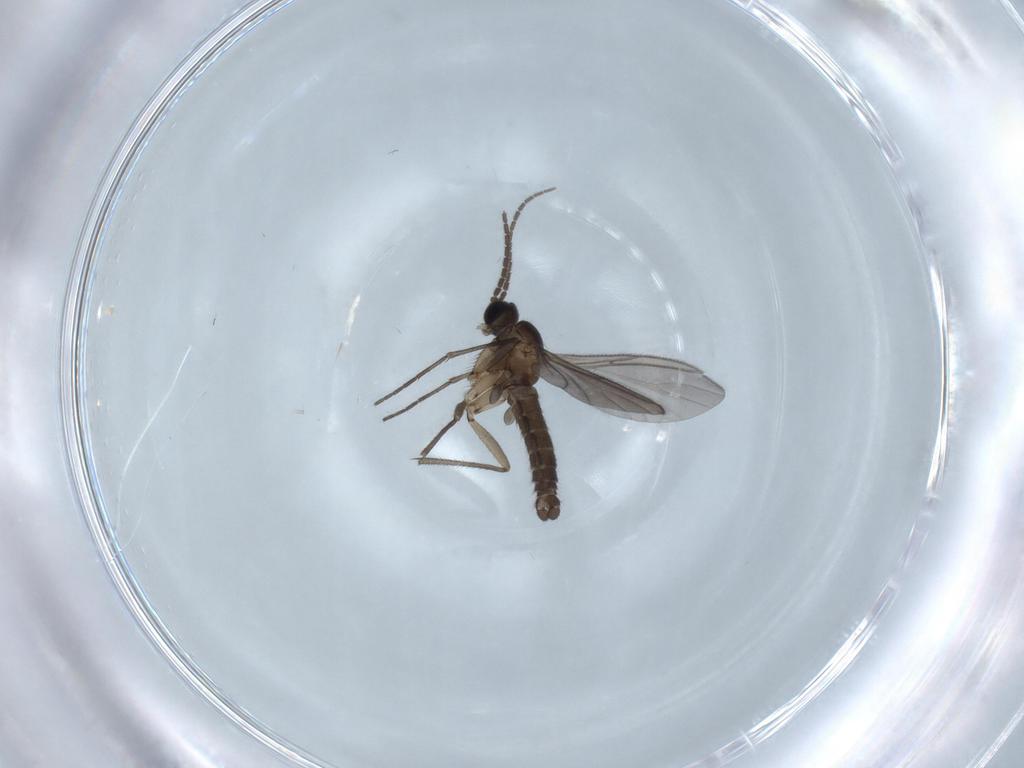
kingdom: Animalia
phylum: Arthropoda
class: Insecta
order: Diptera
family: Sciaridae
